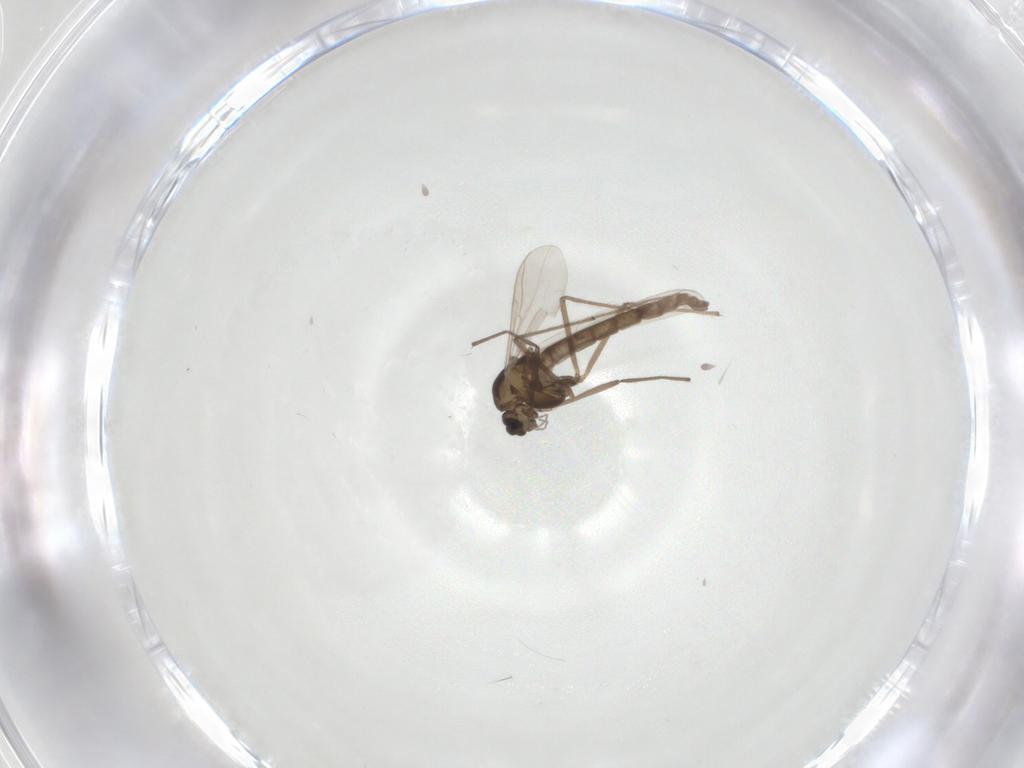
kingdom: Animalia
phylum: Arthropoda
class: Insecta
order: Diptera
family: Chironomidae
